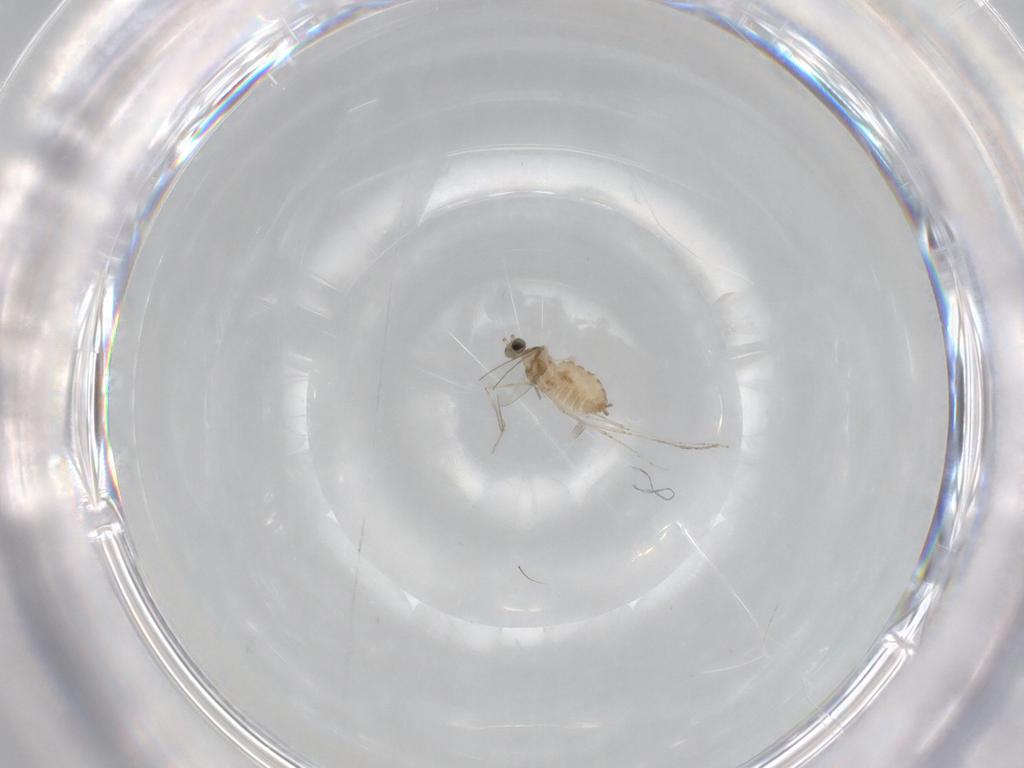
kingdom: Animalia
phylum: Arthropoda
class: Insecta
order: Diptera
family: Cecidomyiidae
